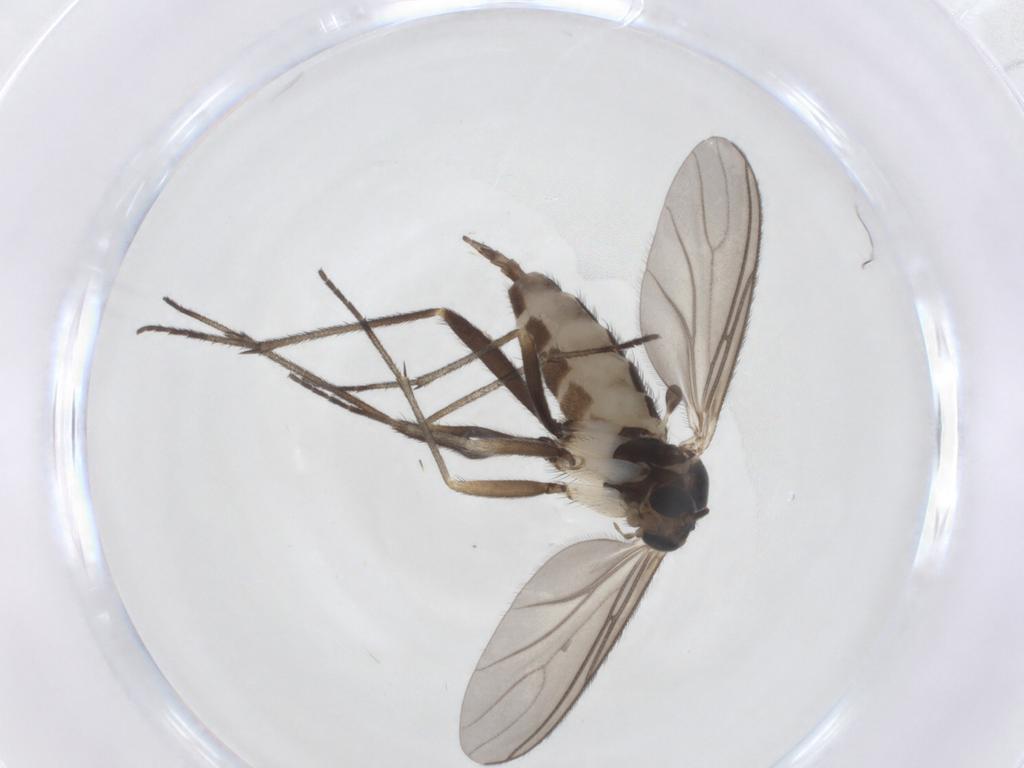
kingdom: Animalia
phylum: Arthropoda
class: Insecta
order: Diptera
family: Sciaridae
